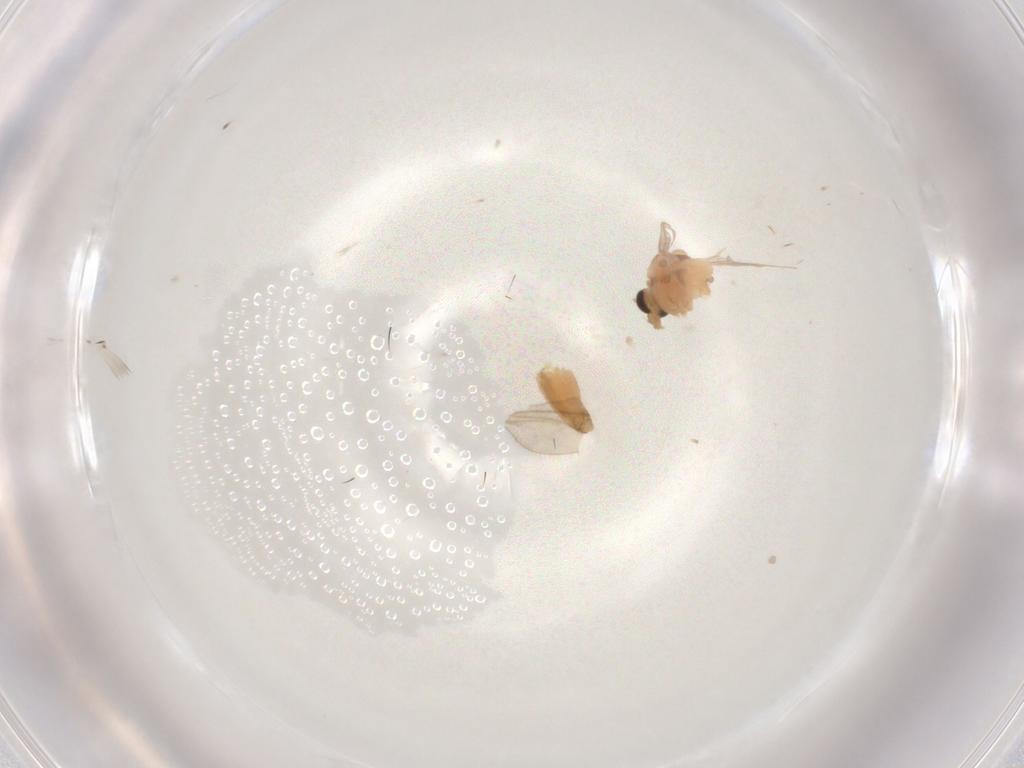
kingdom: Animalia
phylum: Arthropoda
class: Insecta
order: Diptera
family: Chironomidae
